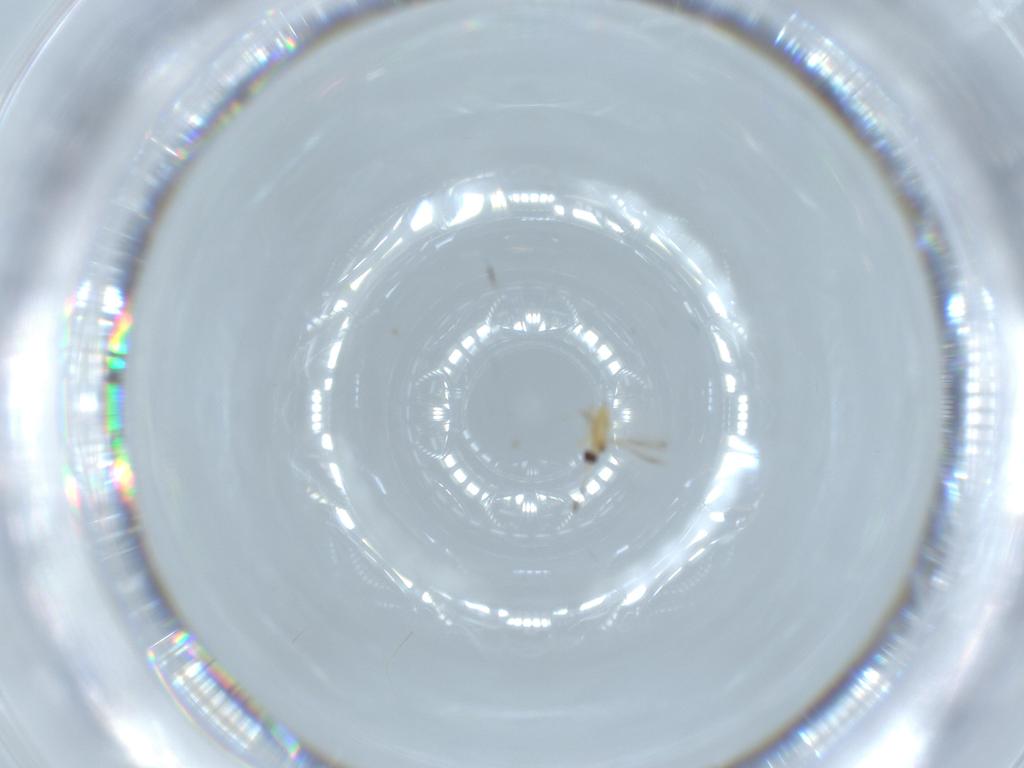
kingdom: Animalia
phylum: Arthropoda
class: Insecta
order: Hymenoptera
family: Mymaridae
